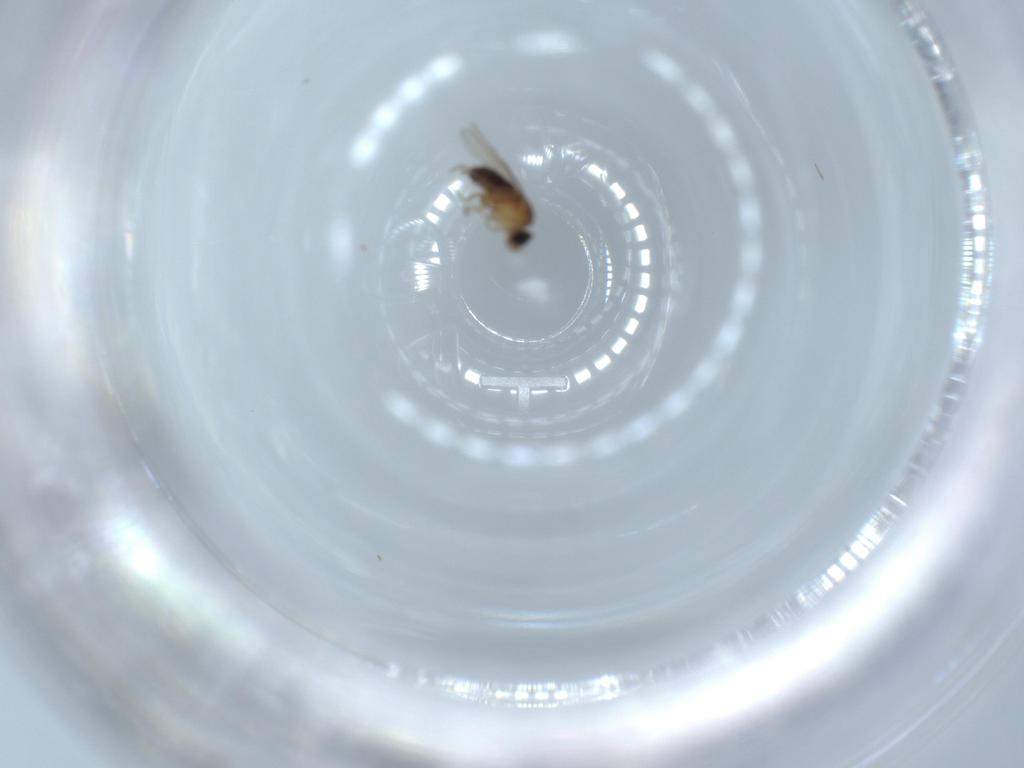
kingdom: Animalia
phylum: Arthropoda
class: Insecta
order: Diptera
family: Phoridae
